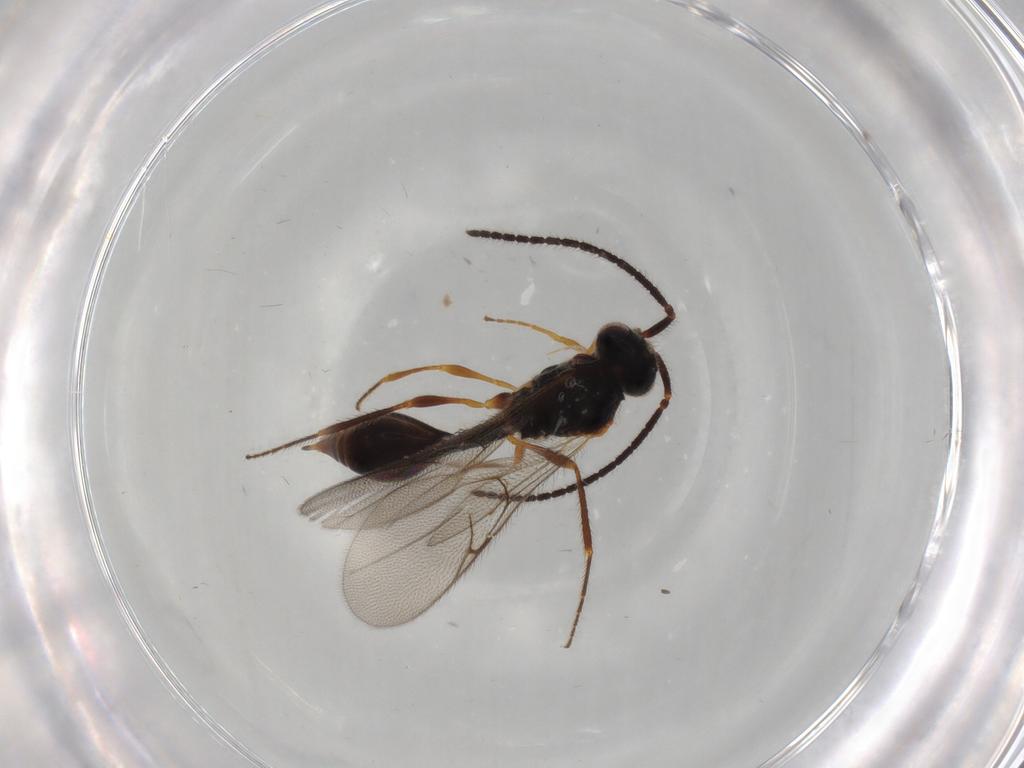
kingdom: Animalia
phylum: Arthropoda
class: Insecta
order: Hymenoptera
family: Diapriidae
